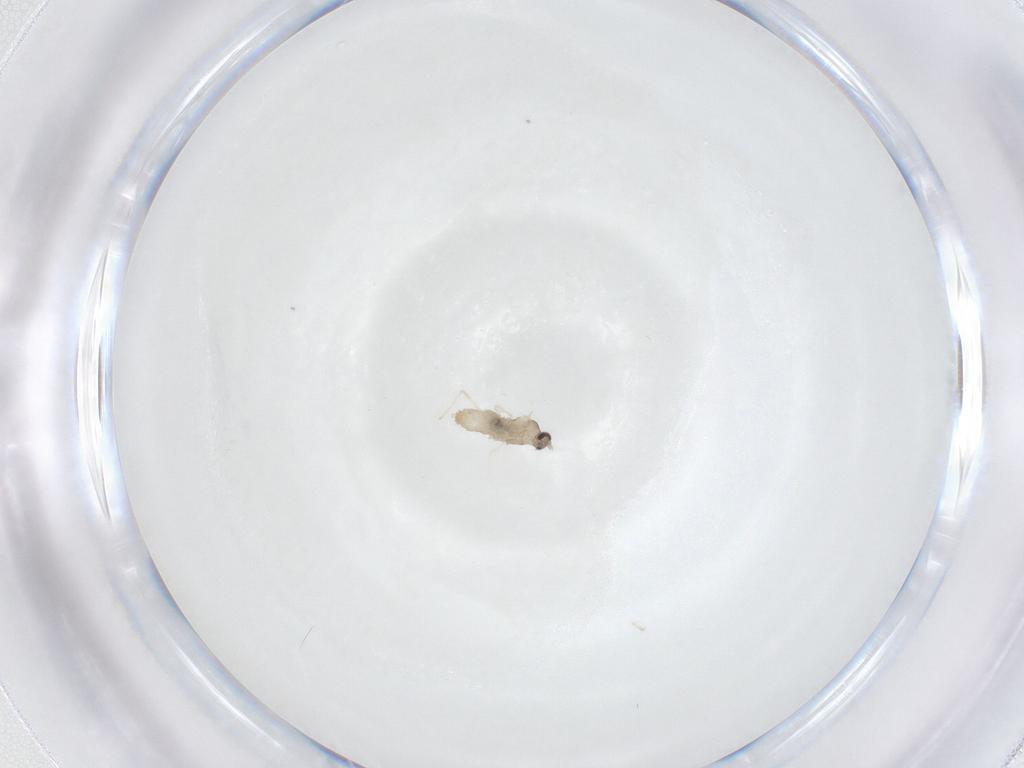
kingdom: Animalia
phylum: Arthropoda
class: Insecta
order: Diptera
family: Cecidomyiidae
